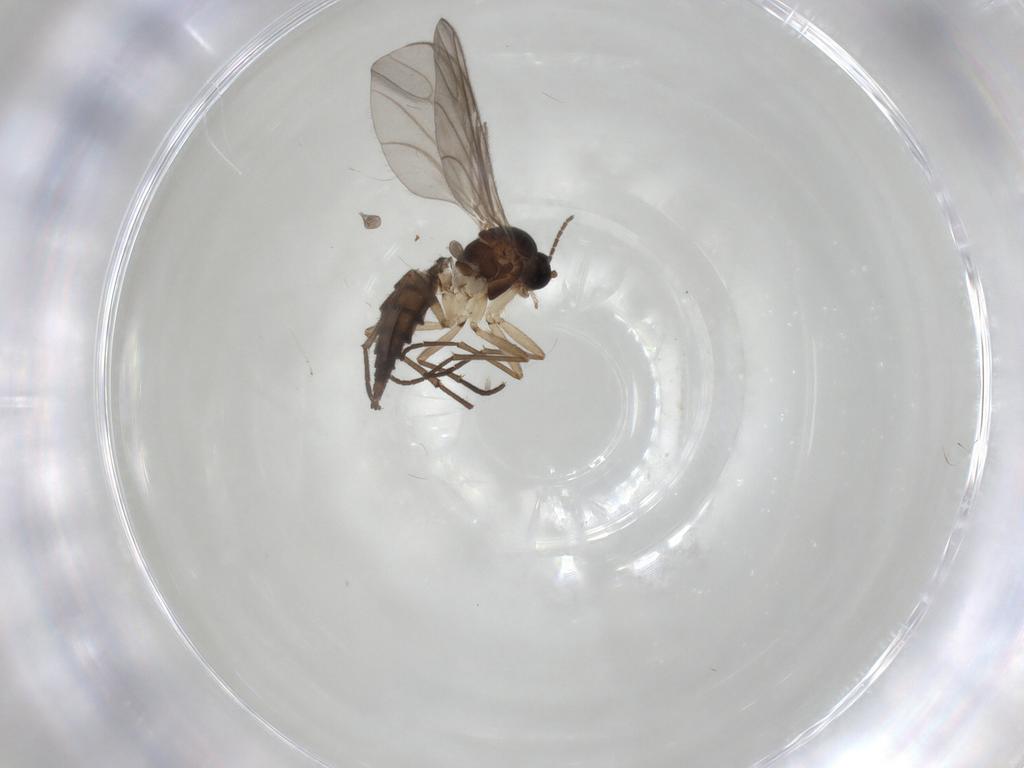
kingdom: Animalia
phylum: Arthropoda
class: Insecta
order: Diptera
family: Sciaridae
